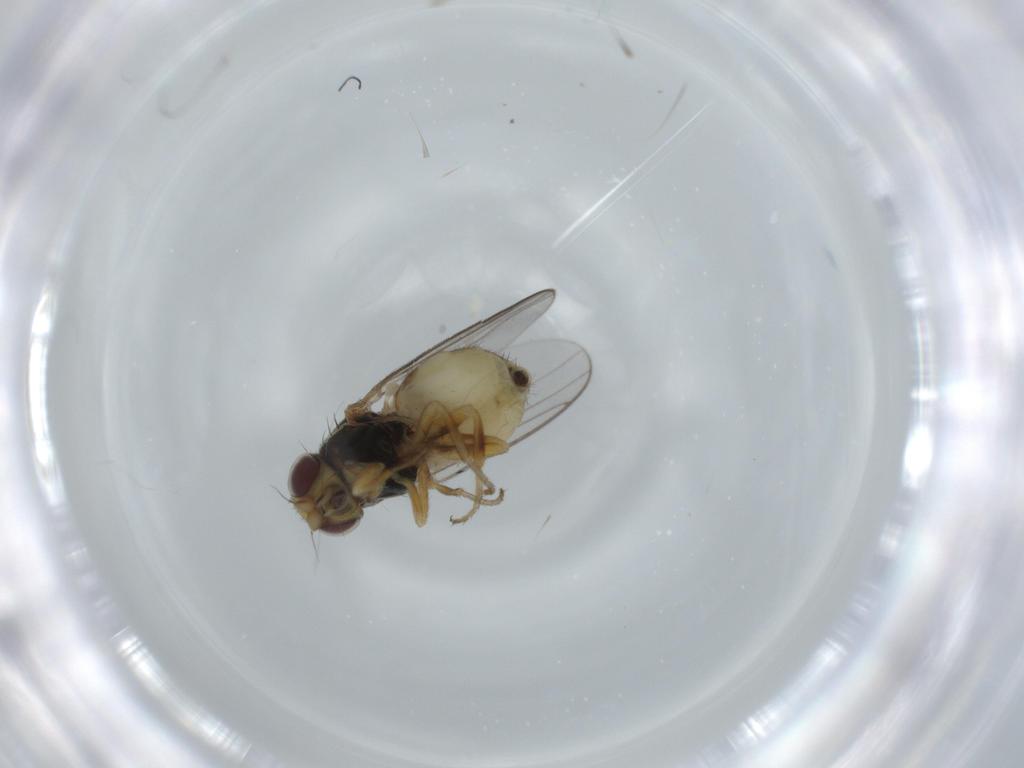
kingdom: Animalia
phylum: Arthropoda
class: Insecta
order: Diptera
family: Chloropidae
